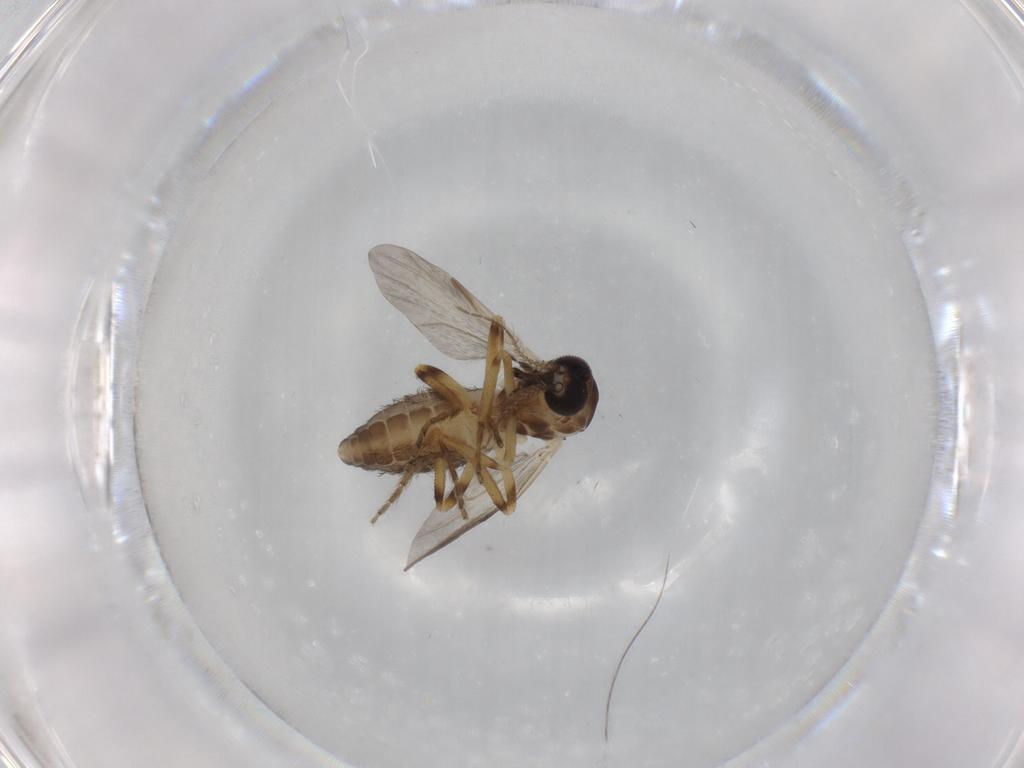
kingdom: Animalia
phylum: Arthropoda
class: Insecta
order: Diptera
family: Ceratopogonidae
